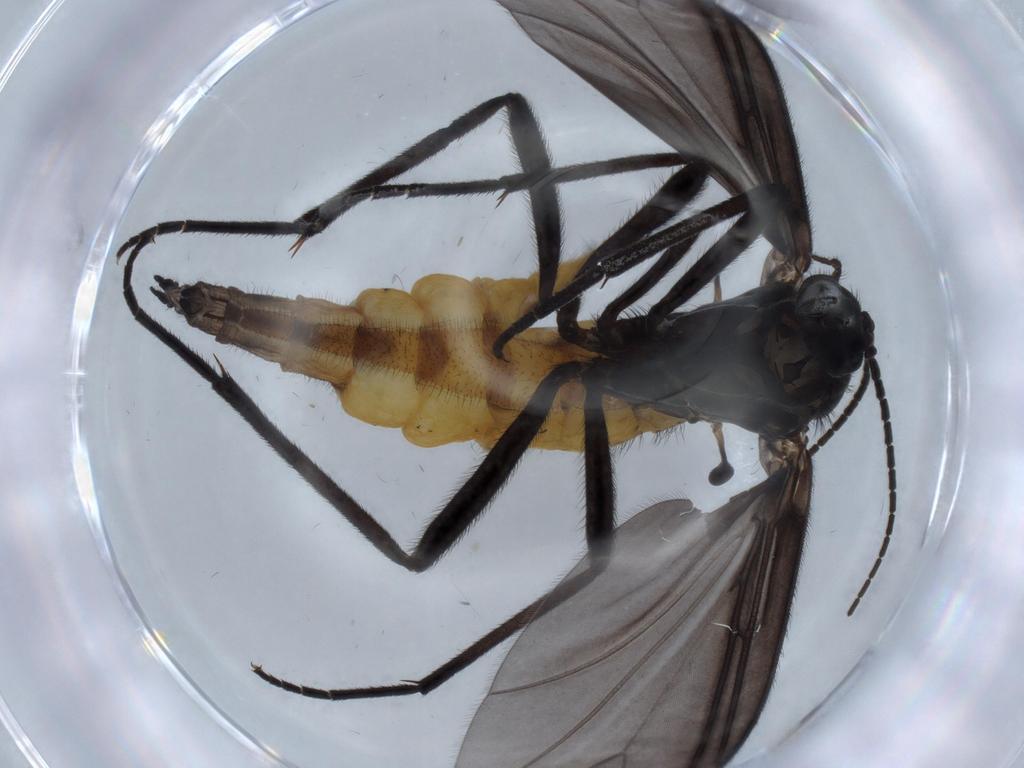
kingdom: Animalia
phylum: Arthropoda
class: Insecta
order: Diptera
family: Sciaridae
